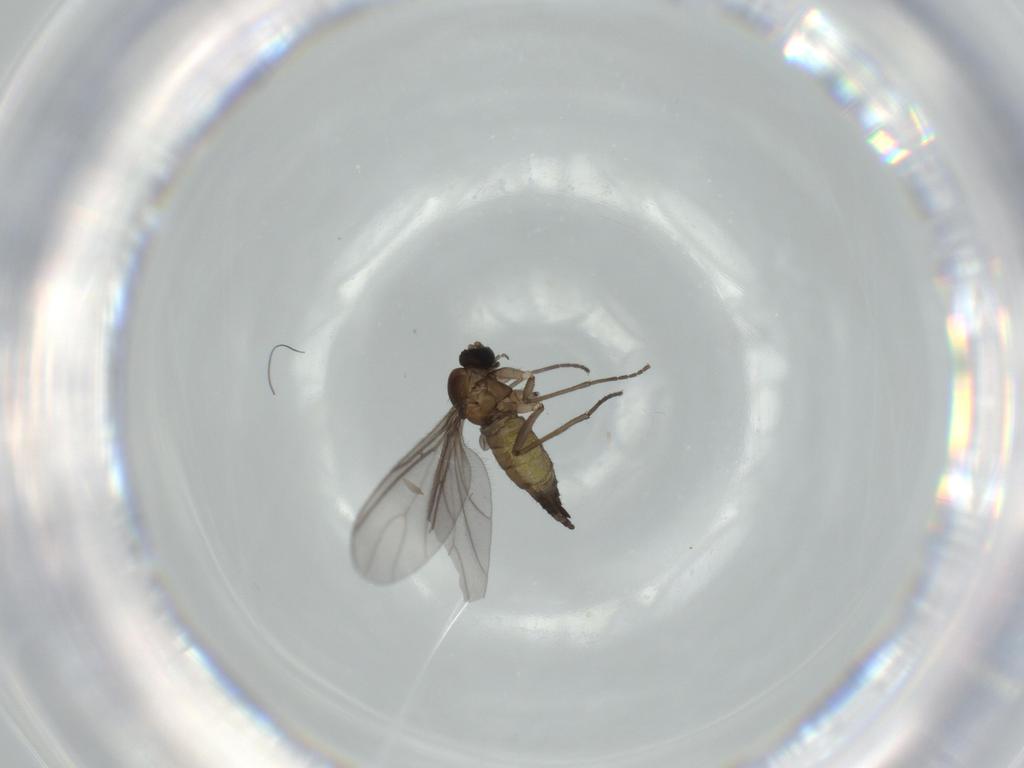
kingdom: Animalia
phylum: Arthropoda
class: Insecta
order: Diptera
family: Sciaridae
